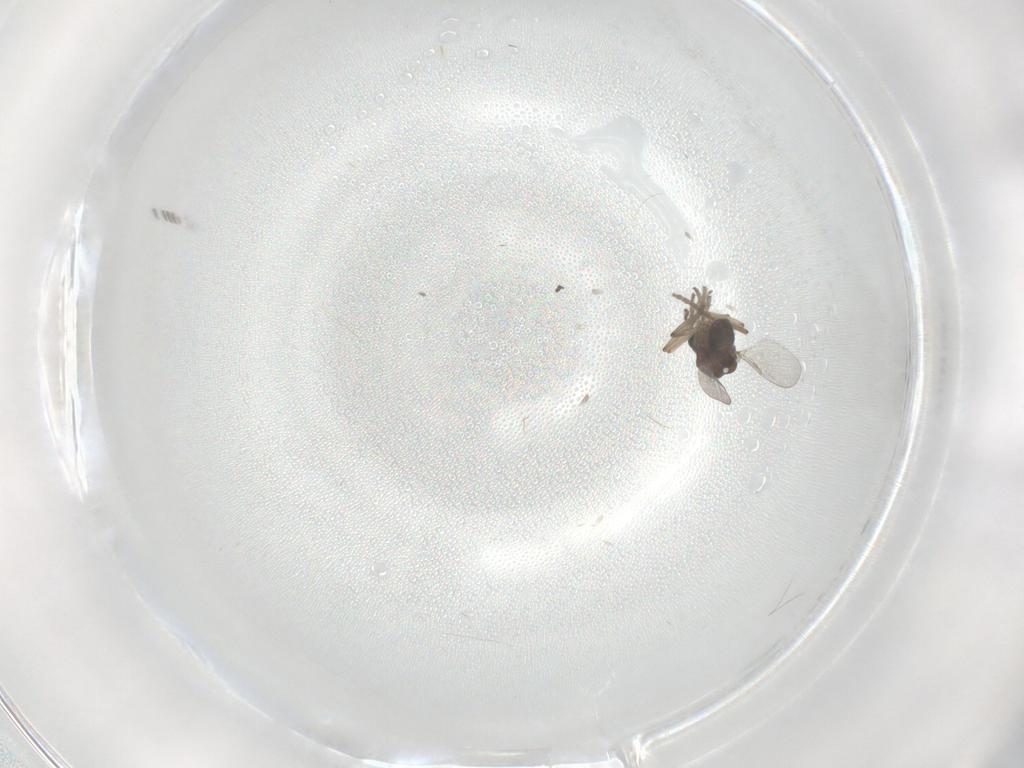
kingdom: Animalia
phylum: Arthropoda
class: Insecta
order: Diptera
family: Ceratopogonidae
